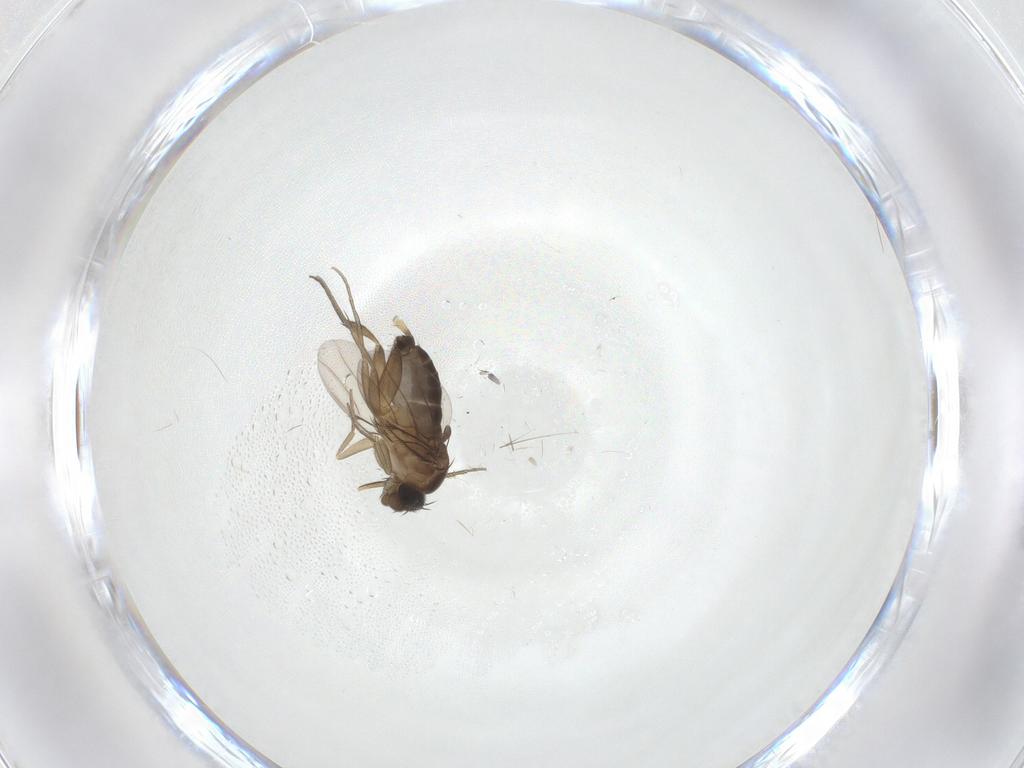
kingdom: Animalia
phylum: Arthropoda
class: Insecta
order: Diptera
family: Phoridae
